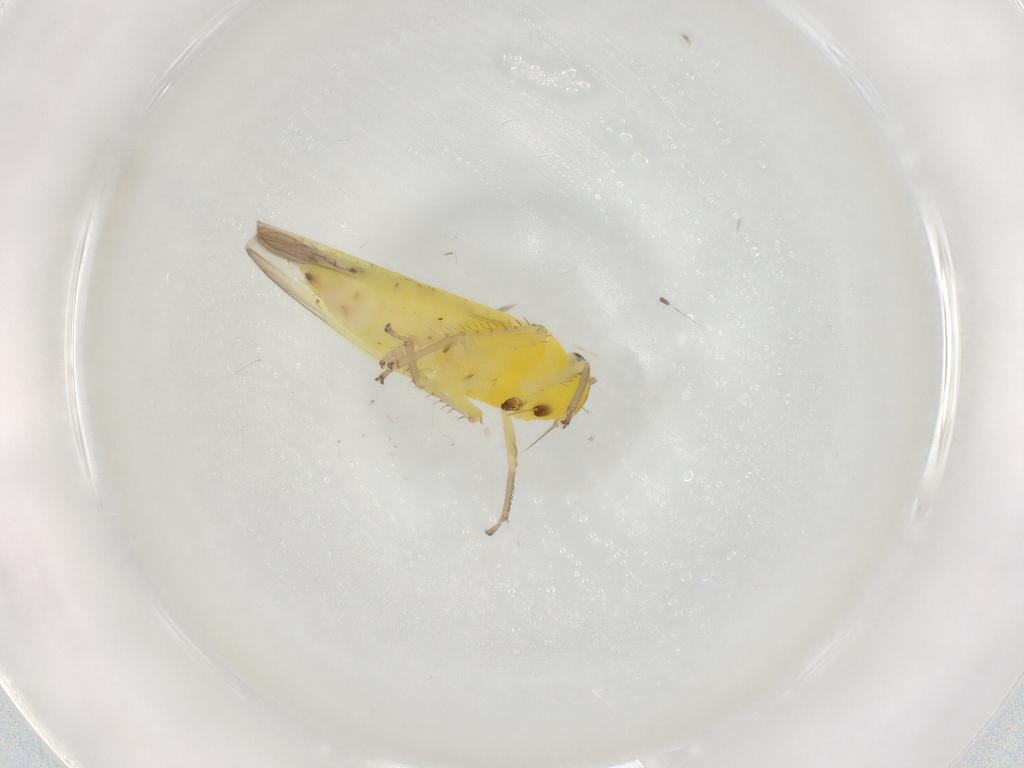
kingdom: Animalia
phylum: Arthropoda
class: Insecta
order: Hemiptera
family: Cicadellidae
